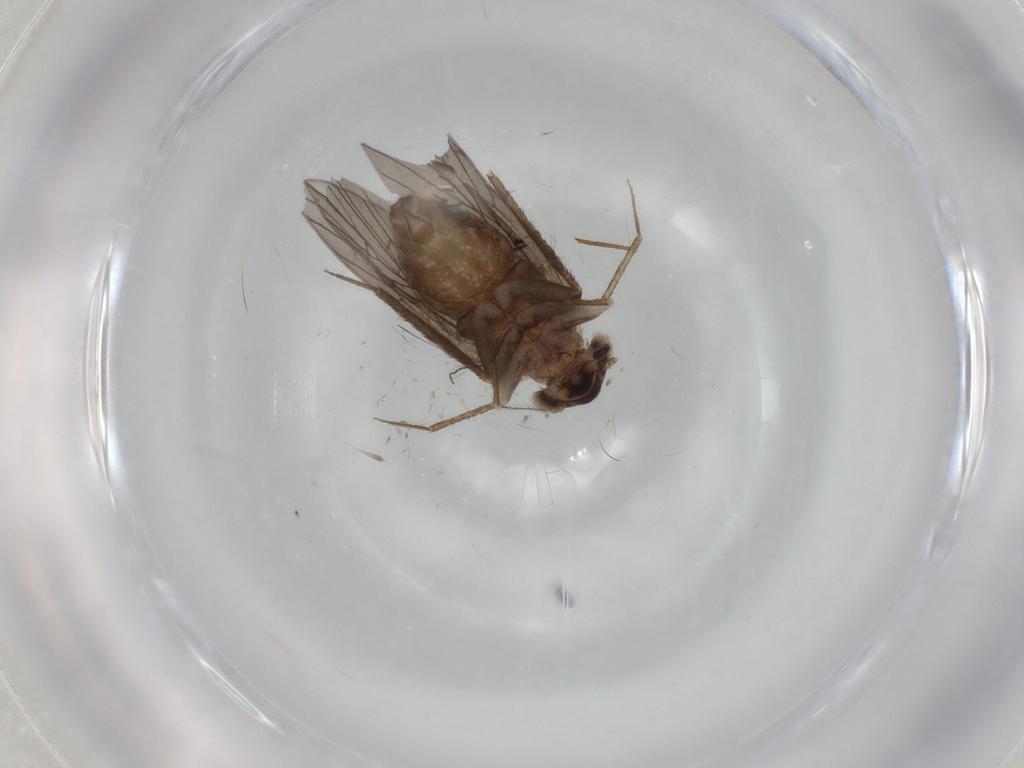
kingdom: Animalia
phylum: Arthropoda
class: Insecta
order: Psocodea
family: Lepidopsocidae
